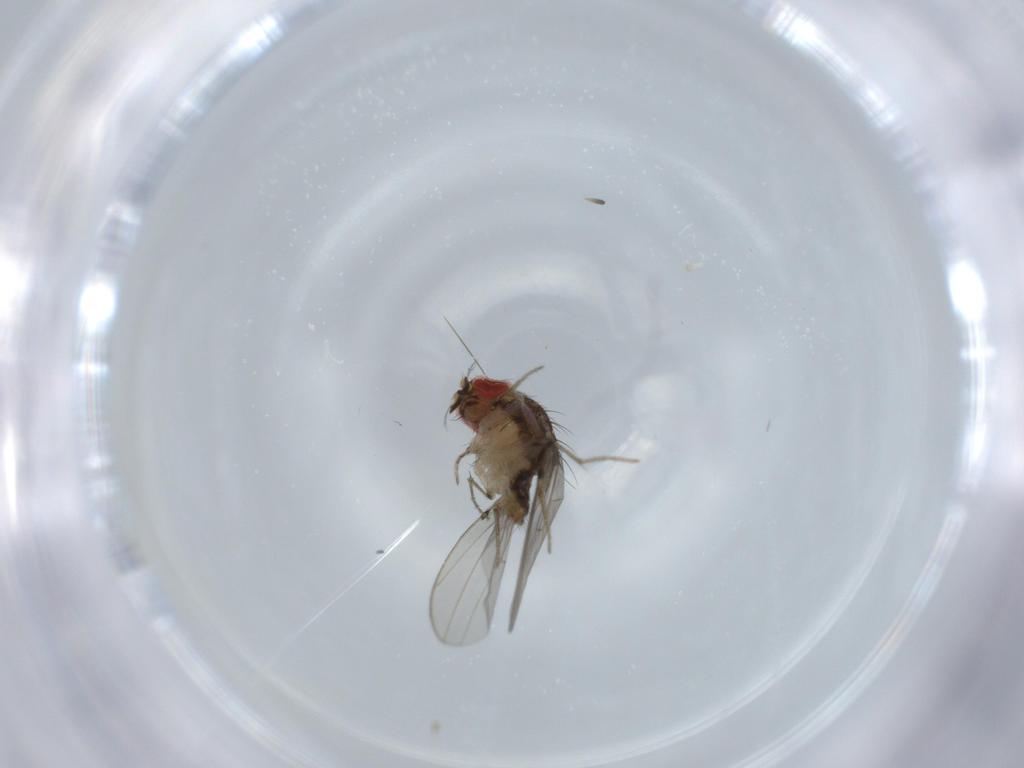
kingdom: Animalia
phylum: Arthropoda
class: Insecta
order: Diptera
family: Drosophilidae
